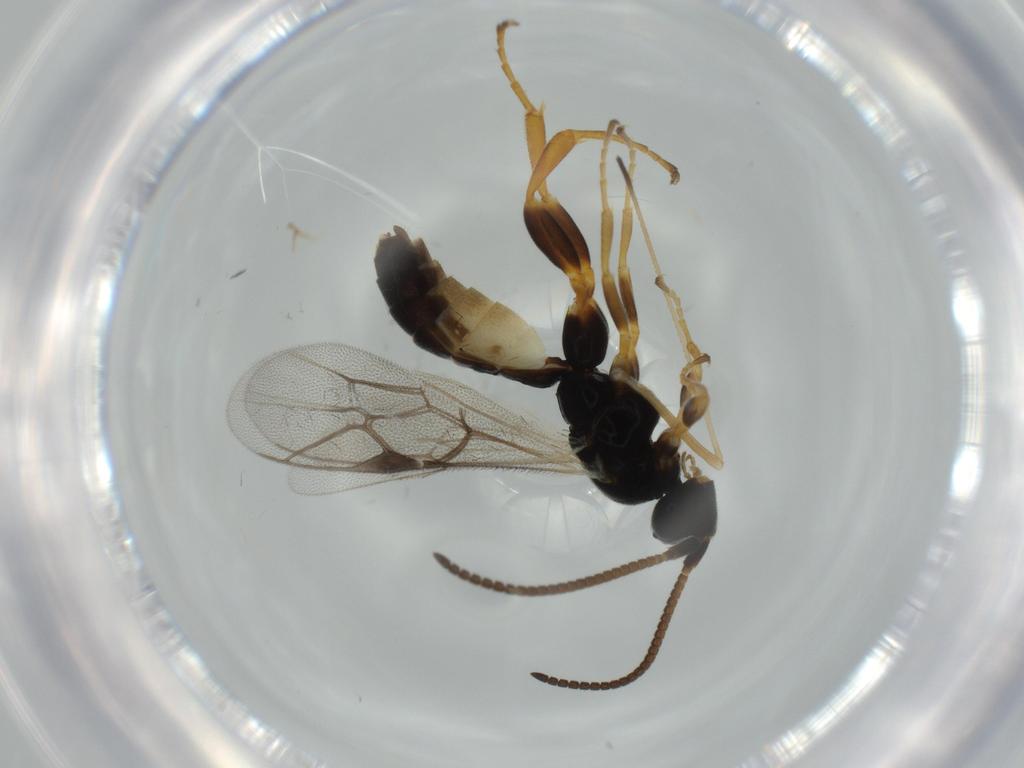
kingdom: Animalia
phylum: Arthropoda
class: Insecta
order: Hymenoptera
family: Ichneumonidae
